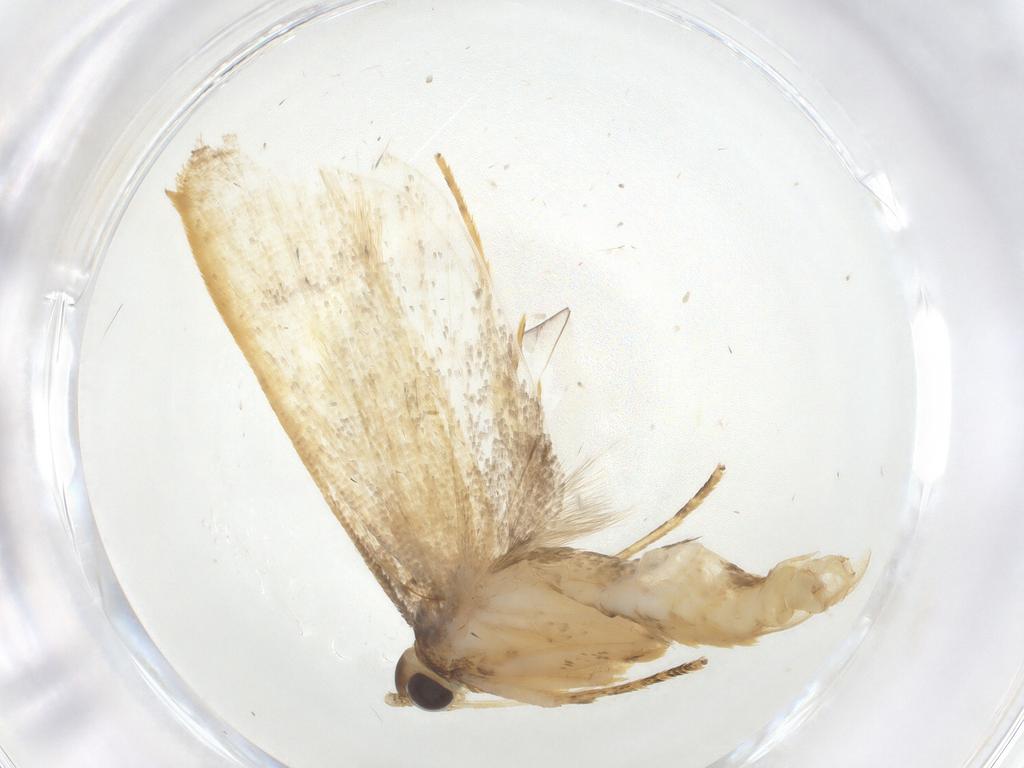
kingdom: Animalia
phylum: Arthropoda
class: Insecta
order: Lepidoptera
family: Lecithoceridae
